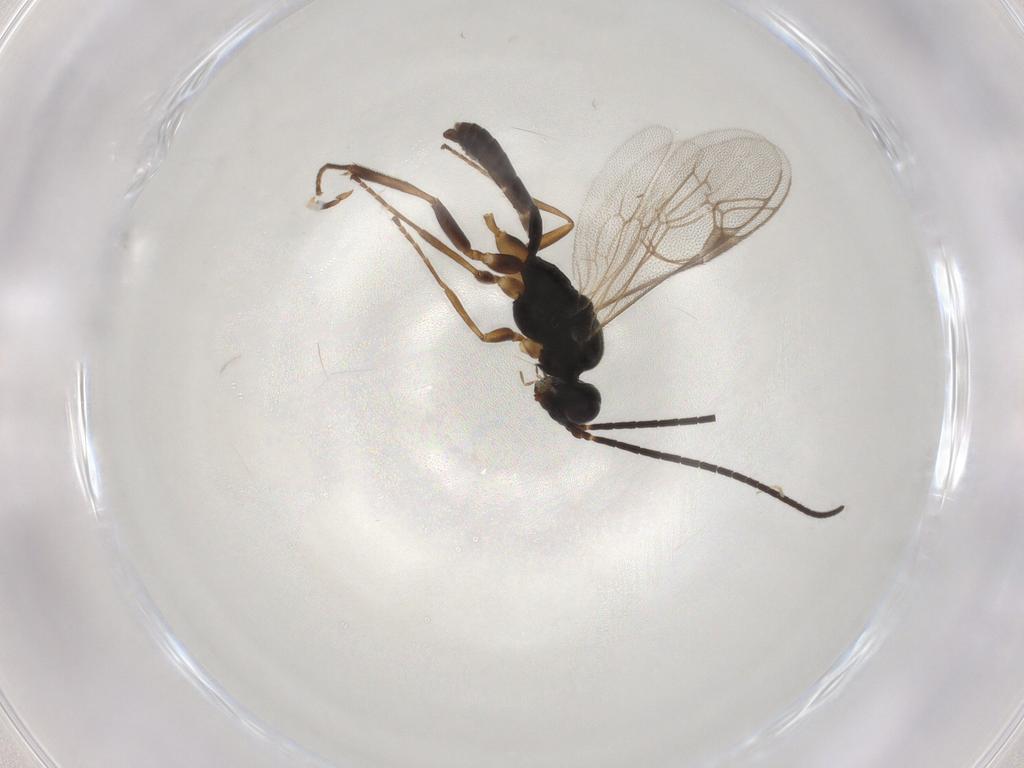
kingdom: Animalia
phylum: Arthropoda
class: Insecta
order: Hymenoptera
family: Ichneumonidae
